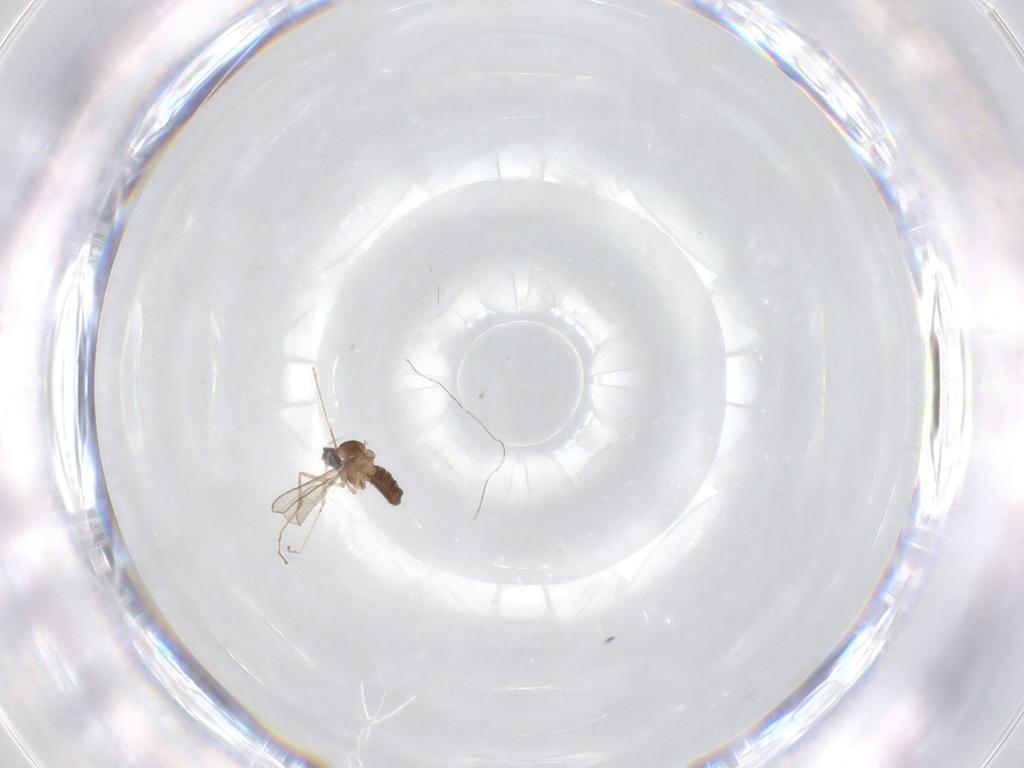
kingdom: Animalia
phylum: Arthropoda
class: Insecta
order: Diptera
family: Cecidomyiidae
